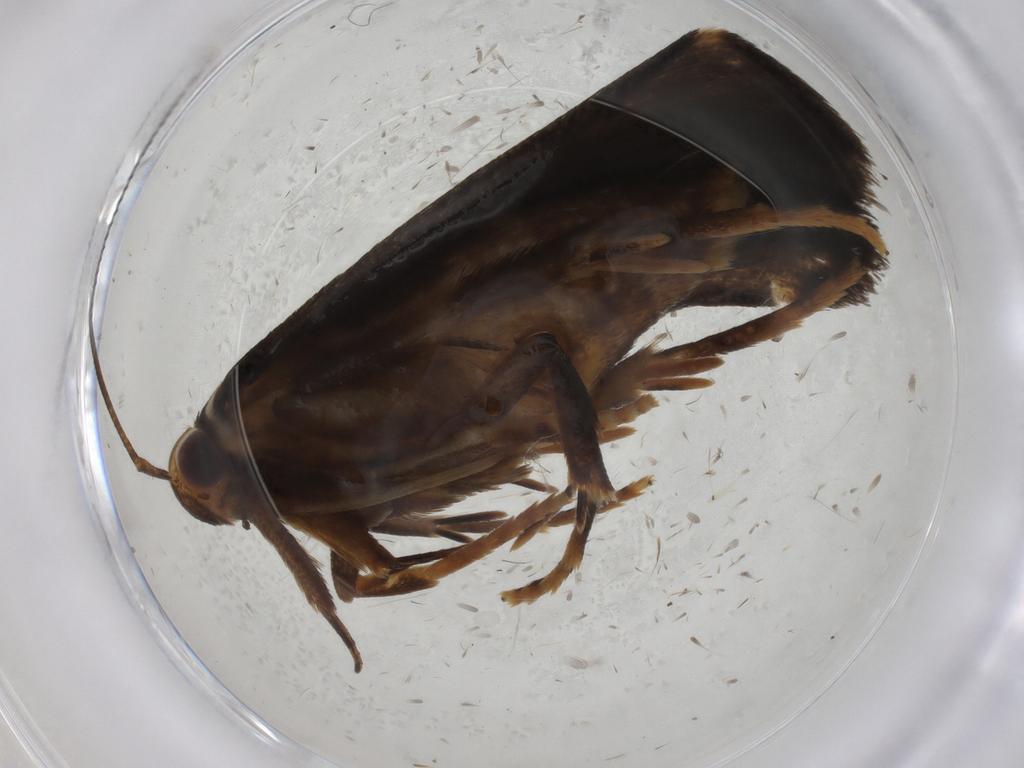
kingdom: Animalia
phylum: Arthropoda
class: Insecta
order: Lepidoptera
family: Gelechiidae
